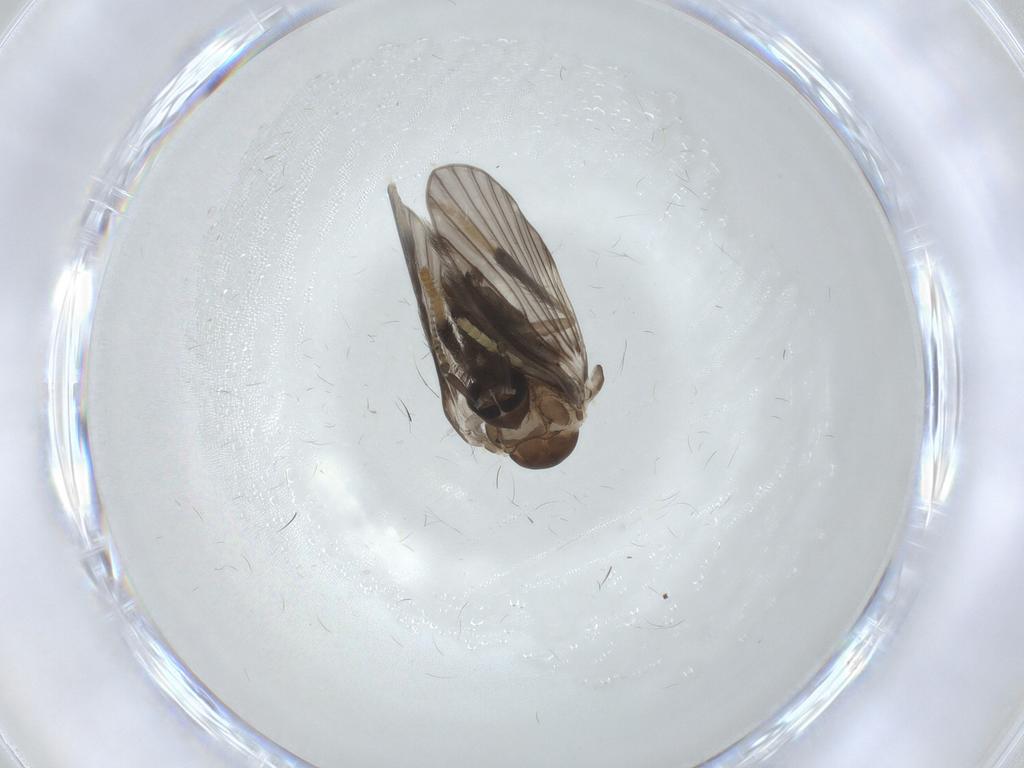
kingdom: Animalia
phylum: Arthropoda
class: Insecta
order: Diptera
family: Psychodidae
